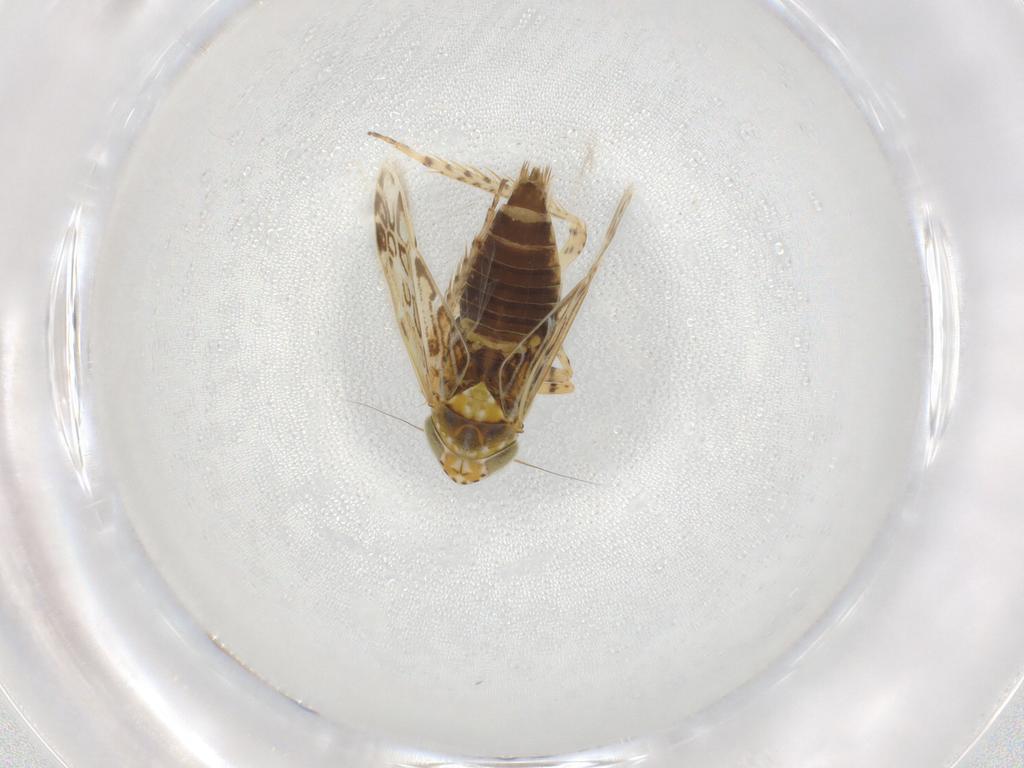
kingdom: Animalia
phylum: Arthropoda
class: Insecta
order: Hemiptera
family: Cicadellidae
